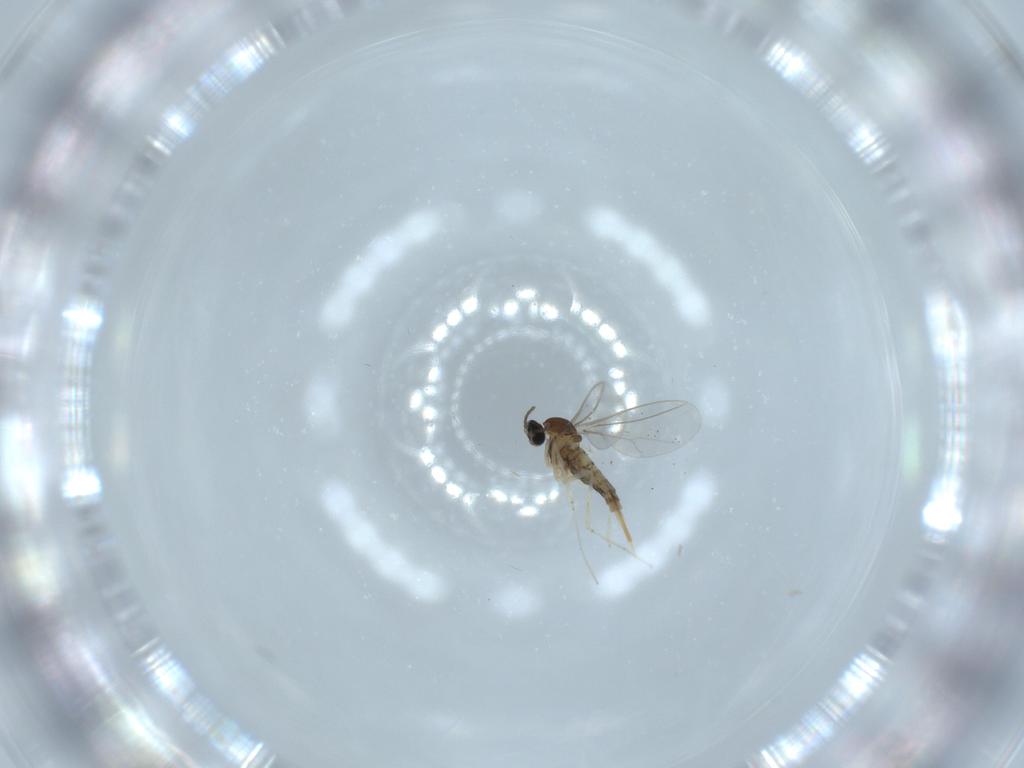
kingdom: Animalia
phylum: Arthropoda
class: Insecta
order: Diptera
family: Cecidomyiidae
